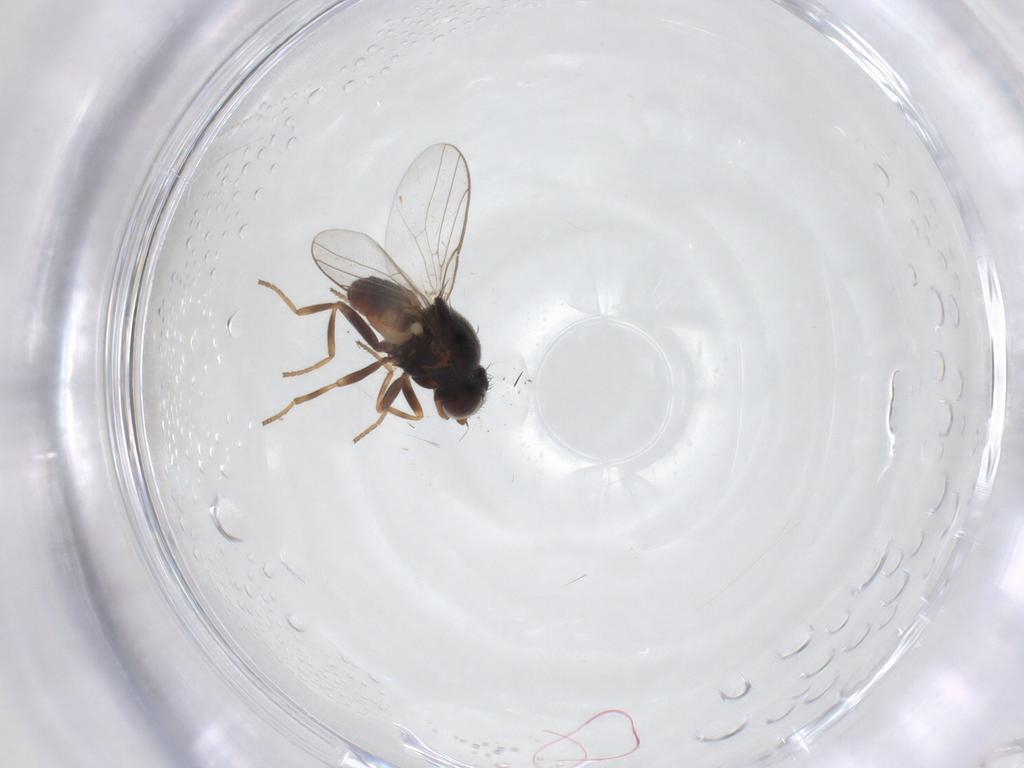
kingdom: Animalia
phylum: Arthropoda
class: Insecta
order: Diptera
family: Chloropidae
